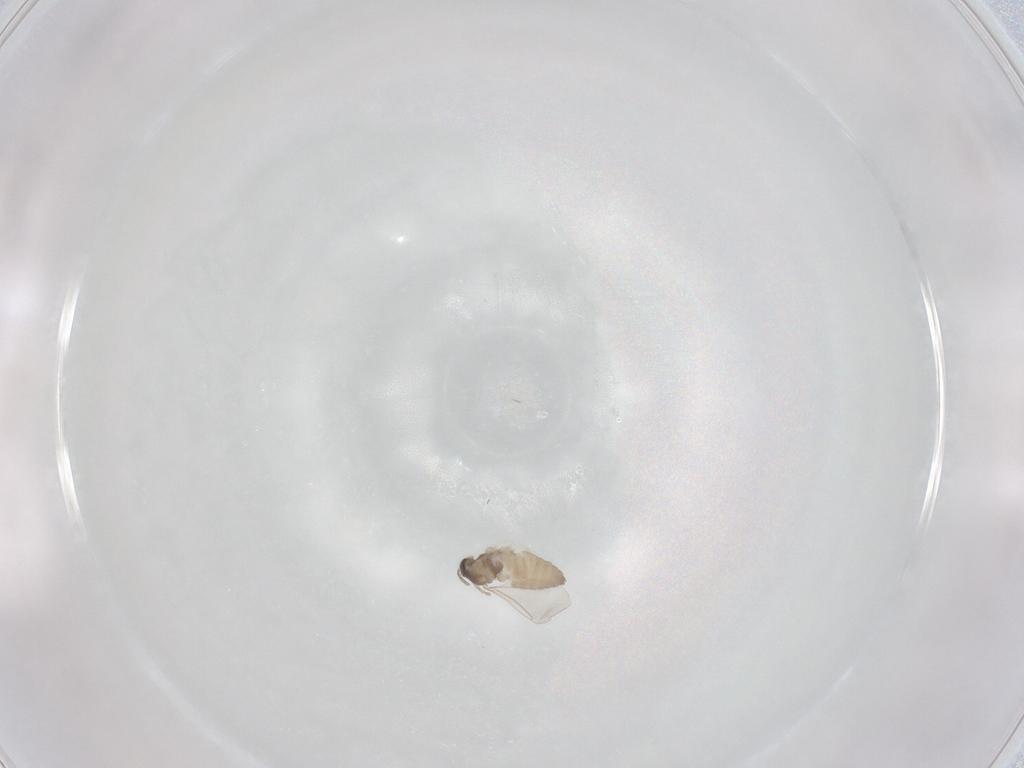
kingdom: Animalia
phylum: Arthropoda
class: Insecta
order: Diptera
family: Cecidomyiidae
